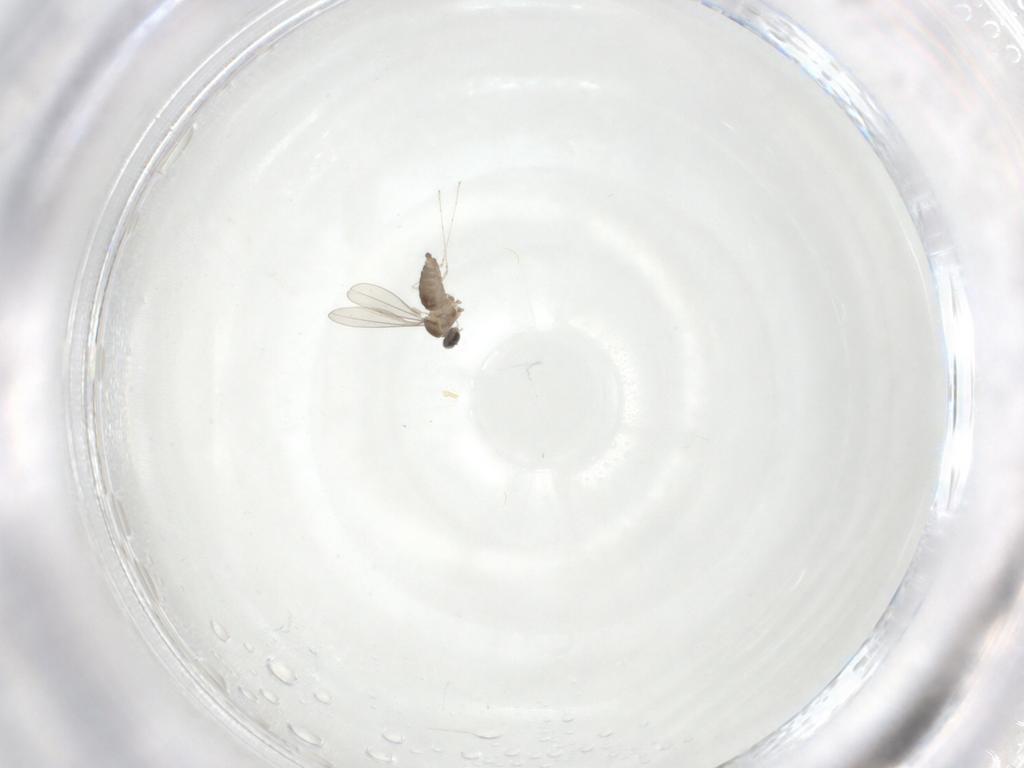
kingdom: Animalia
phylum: Arthropoda
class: Insecta
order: Diptera
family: Cecidomyiidae
